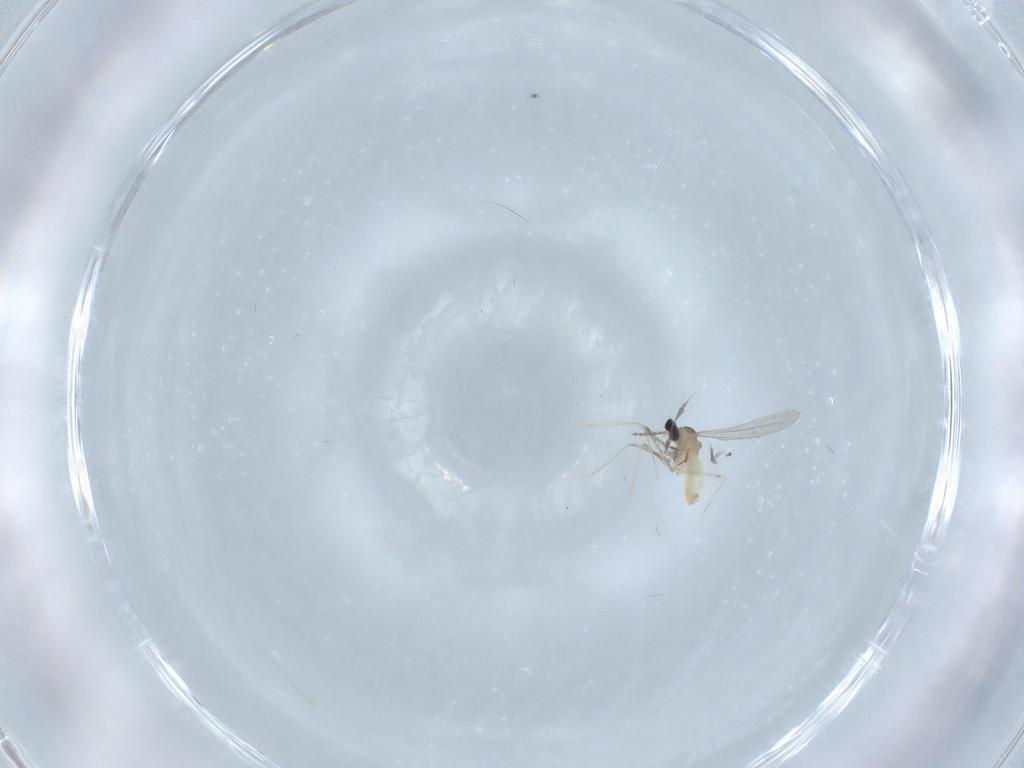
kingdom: Animalia
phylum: Arthropoda
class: Insecta
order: Diptera
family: Cecidomyiidae
